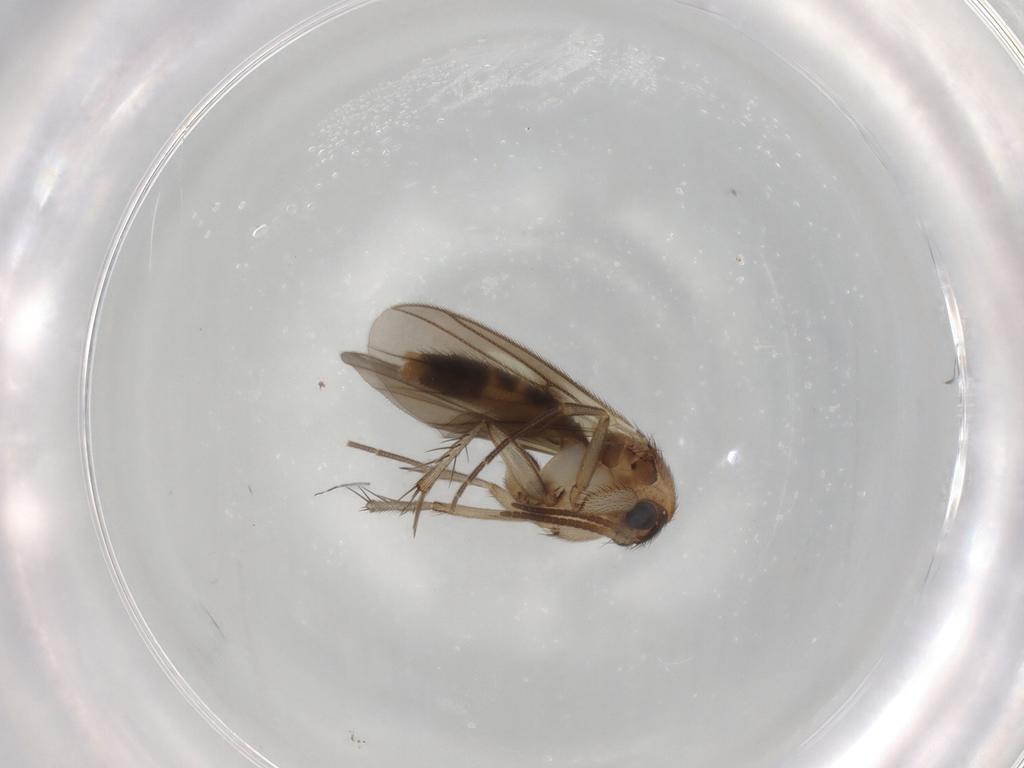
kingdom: Animalia
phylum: Arthropoda
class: Insecta
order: Diptera
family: Psychodidae
